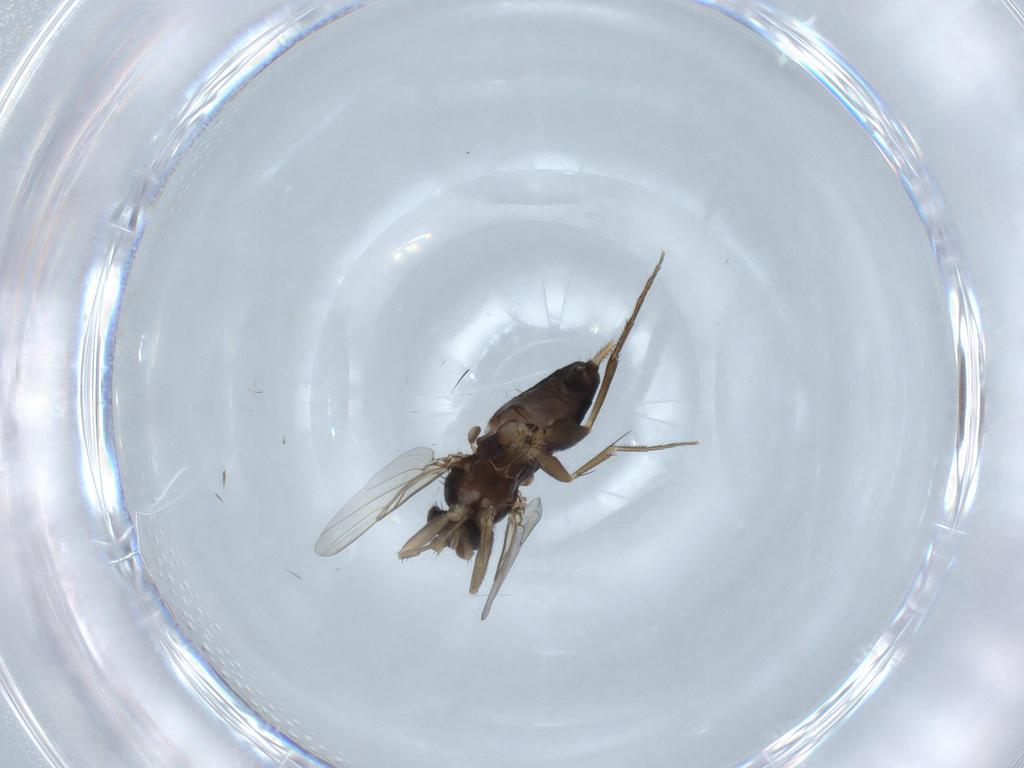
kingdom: Animalia
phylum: Arthropoda
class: Insecta
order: Diptera
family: Phoridae
